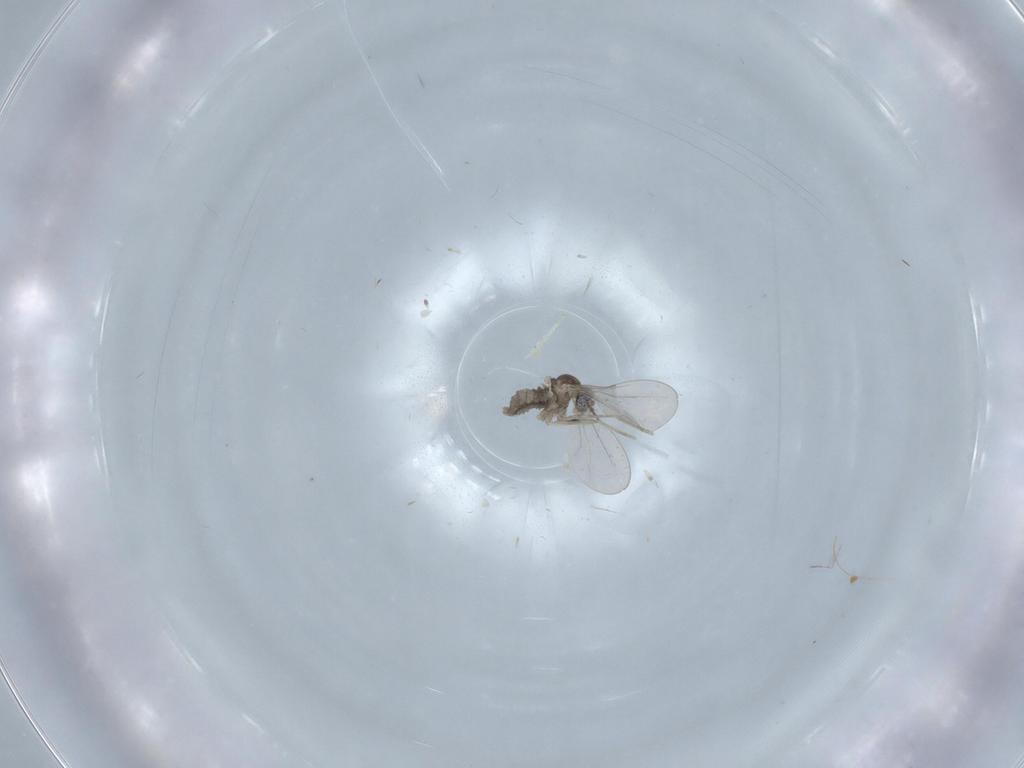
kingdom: Animalia
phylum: Arthropoda
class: Insecta
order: Diptera
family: Cecidomyiidae
